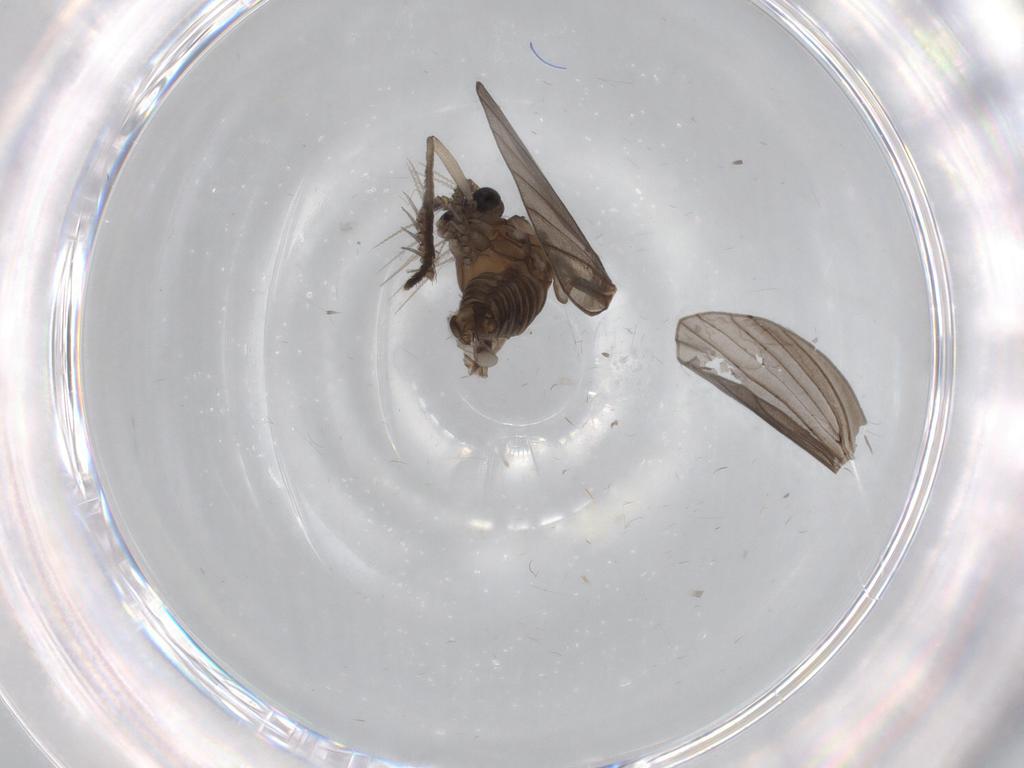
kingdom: Animalia
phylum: Arthropoda
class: Insecta
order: Diptera
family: Psychodidae
